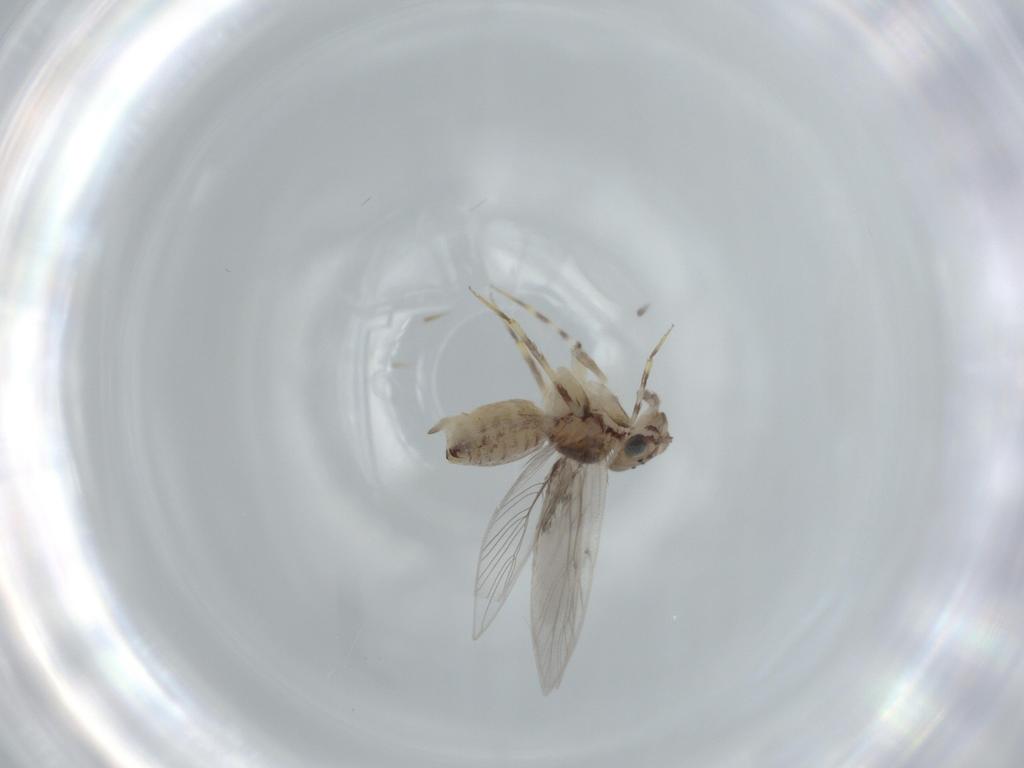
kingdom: Animalia
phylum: Arthropoda
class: Insecta
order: Psocodea
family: Lepidopsocidae
